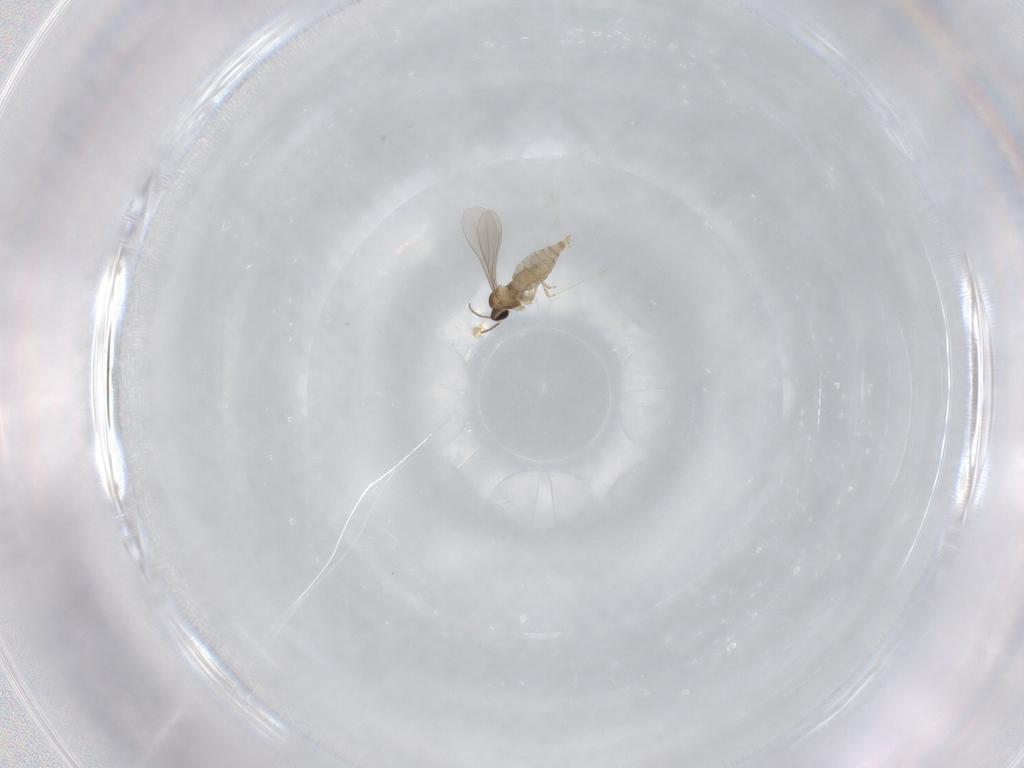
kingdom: Animalia
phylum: Arthropoda
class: Insecta
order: Diptera
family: Cecidomyiidae
